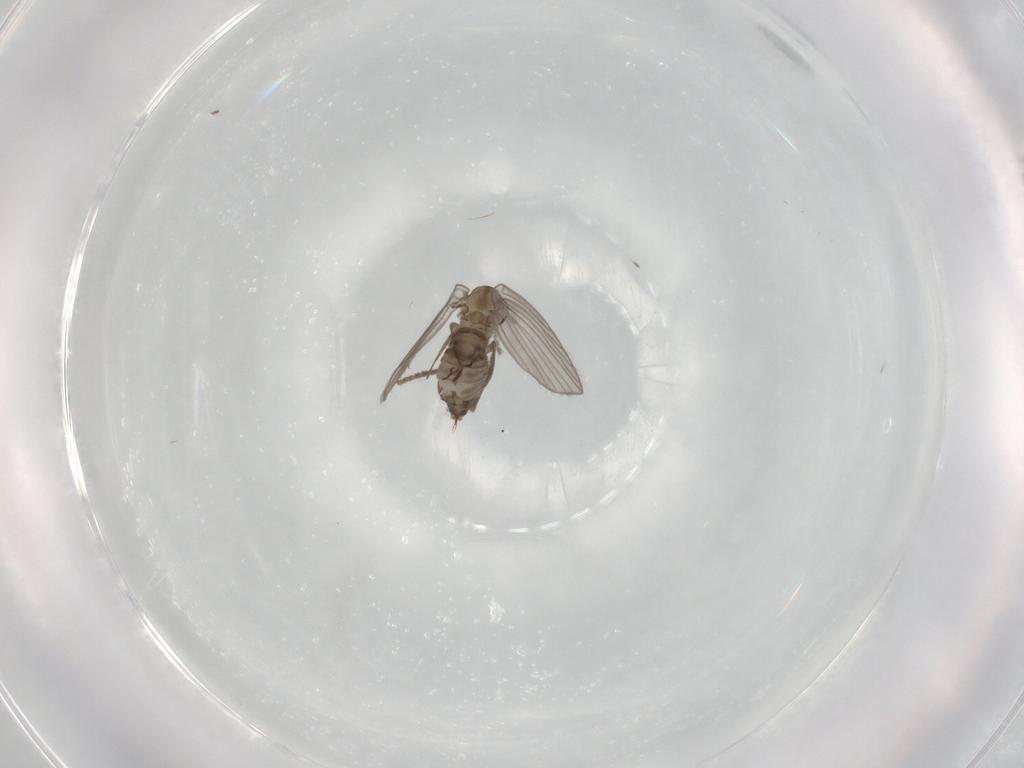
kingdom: Animalia
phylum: Arthropoda
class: Insecta
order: Diptera
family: Psychodidae
